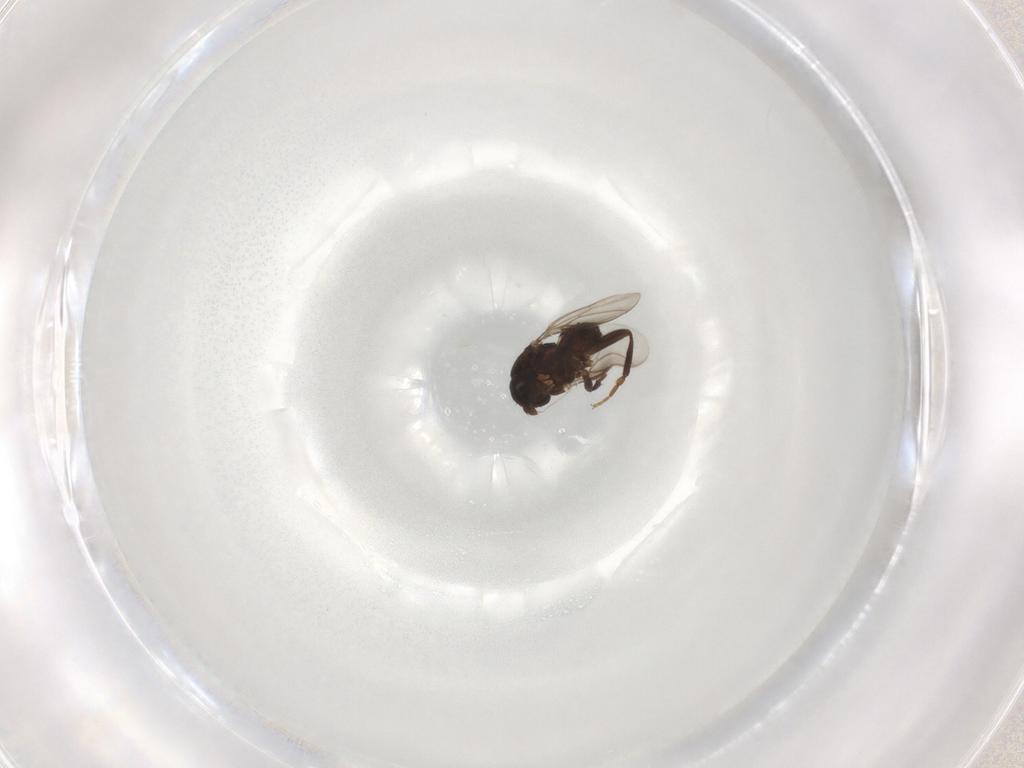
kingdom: Animalia
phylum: Arthropoda
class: Insecta
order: Diptera
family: Sphaeroceridae
